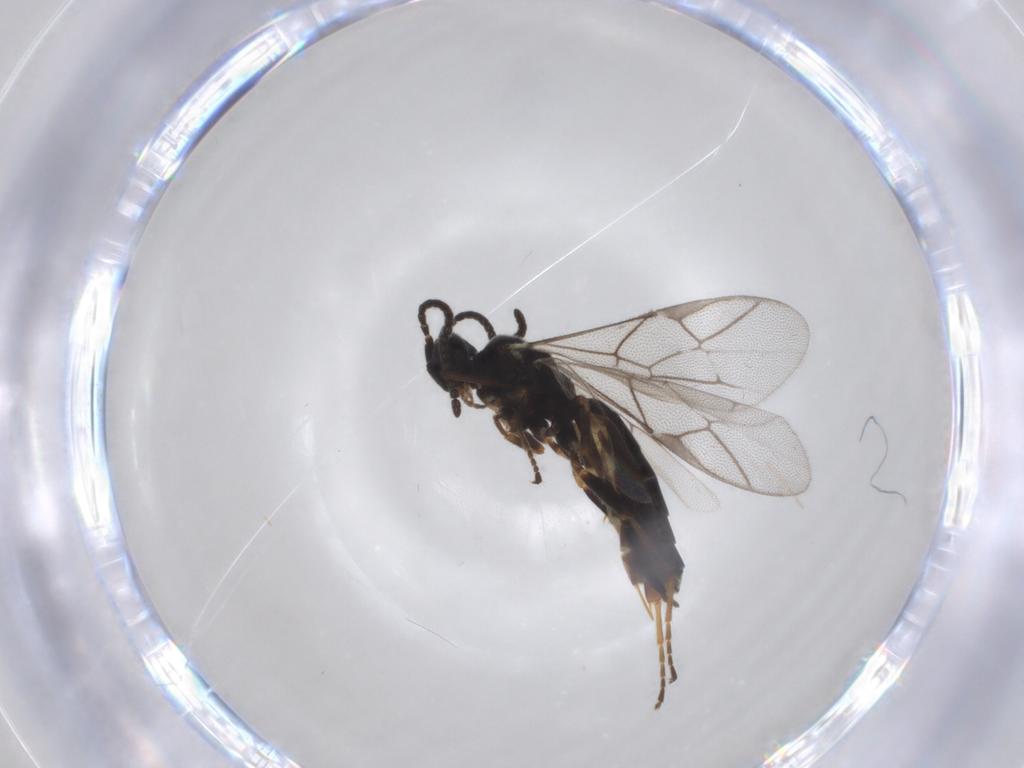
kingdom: Animalia
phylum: Arthropoda
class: Insecta
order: Hymenoptera
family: Ichneumonidae
